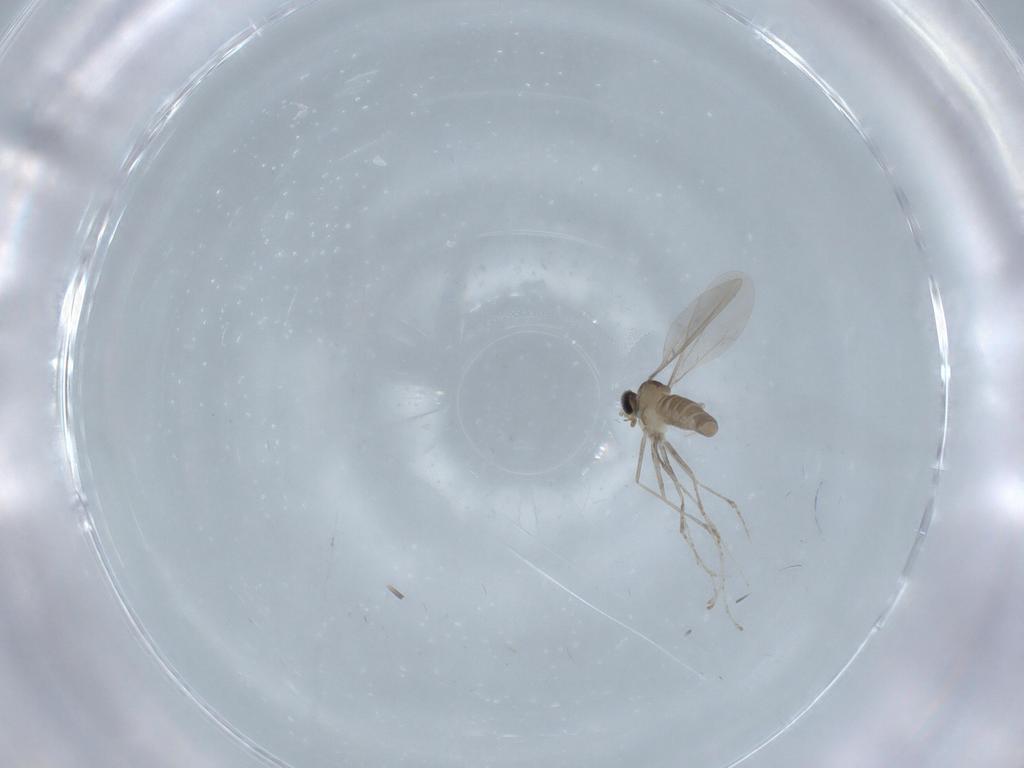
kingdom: Animalia
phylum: Arthropoda
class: Insecta
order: Diptera
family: Cecidomyiidae
